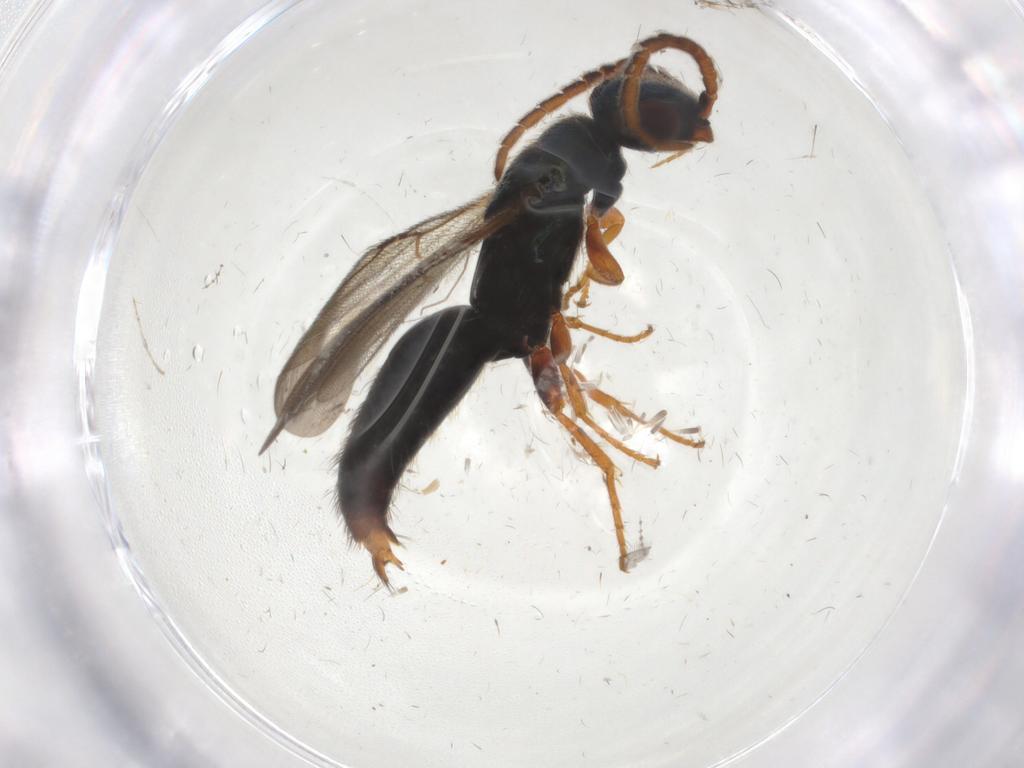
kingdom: Animalia
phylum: Arthropoda
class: Insecta
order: Hymenoptera
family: Bethylidae
